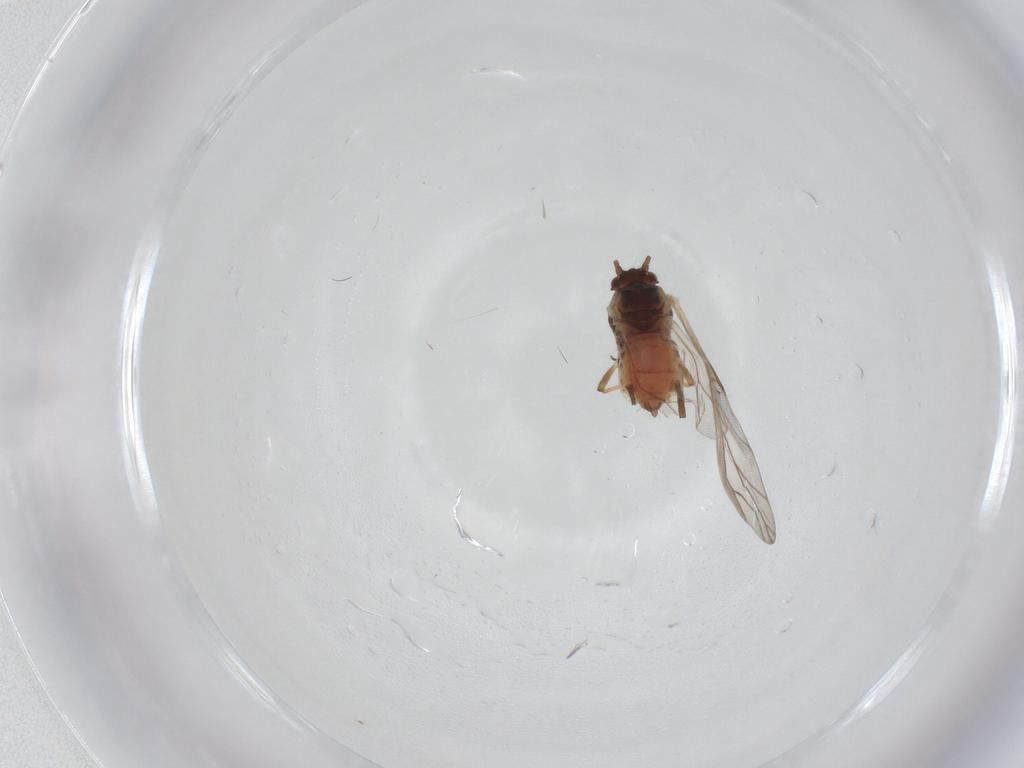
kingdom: Animalia
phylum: Arthropoda
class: Insecta
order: Hemiptera
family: Aphididae
